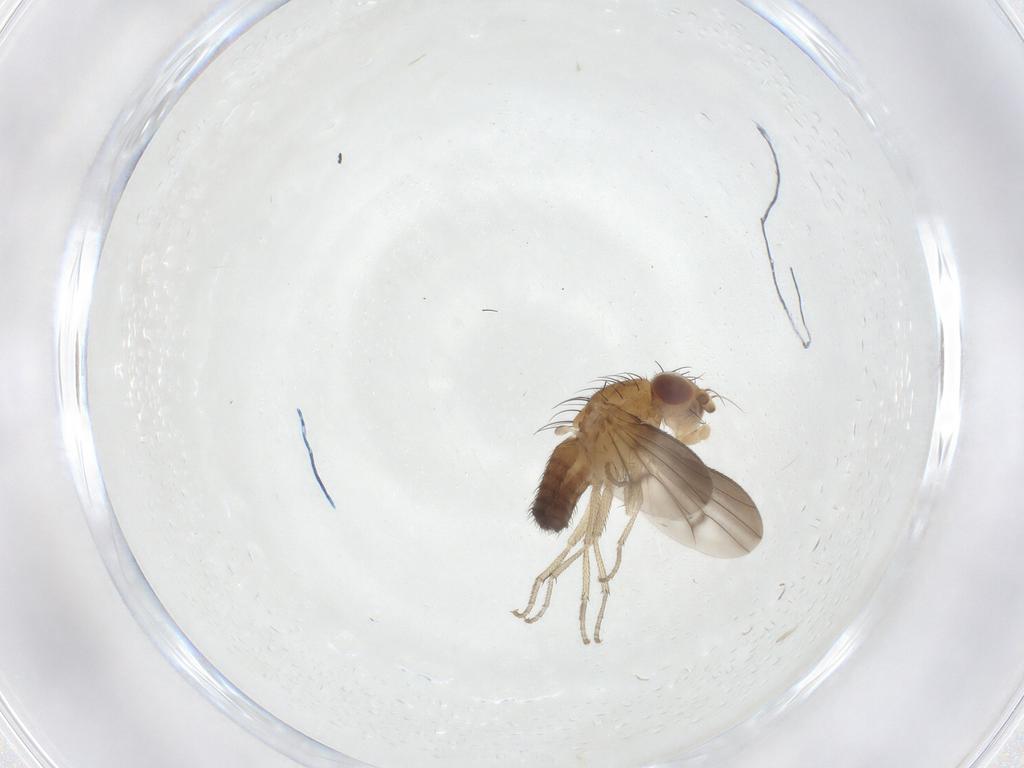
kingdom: Animalia
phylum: Arthropoda
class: Insecta
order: Diptera
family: Heleomyzidae
